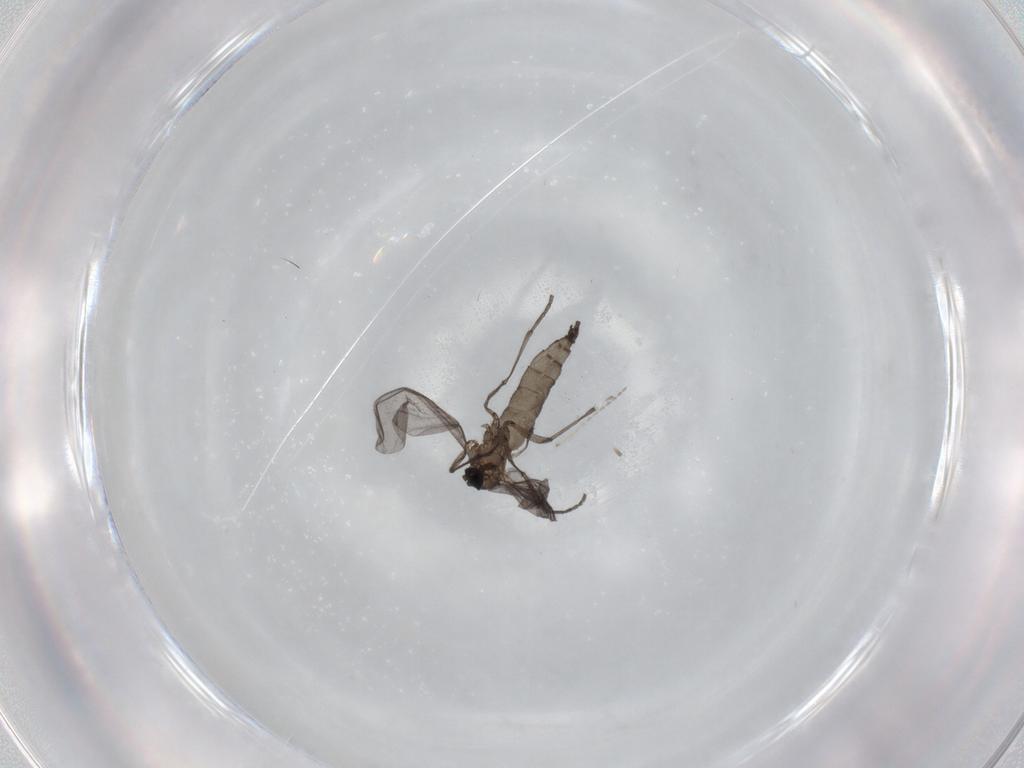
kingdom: Animalia
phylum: Arthropoda
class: Insecta
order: Diptera
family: Sciaridae
